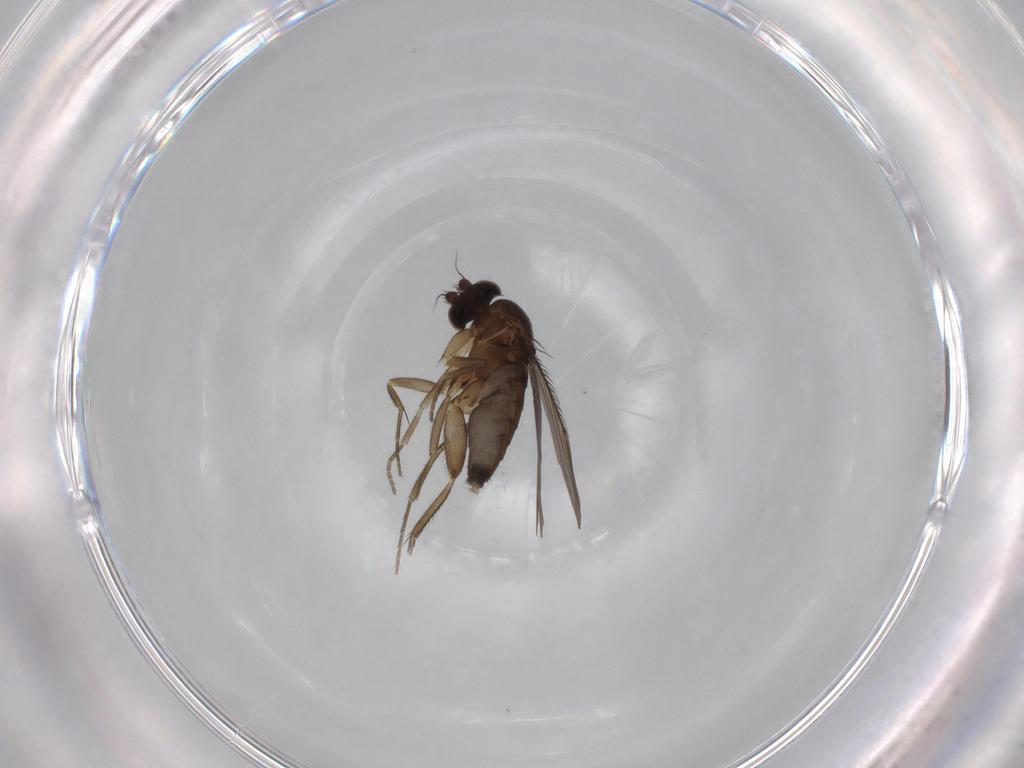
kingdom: Animalia
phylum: Arthropoda
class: Insecta
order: Diptera
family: Phoridae
